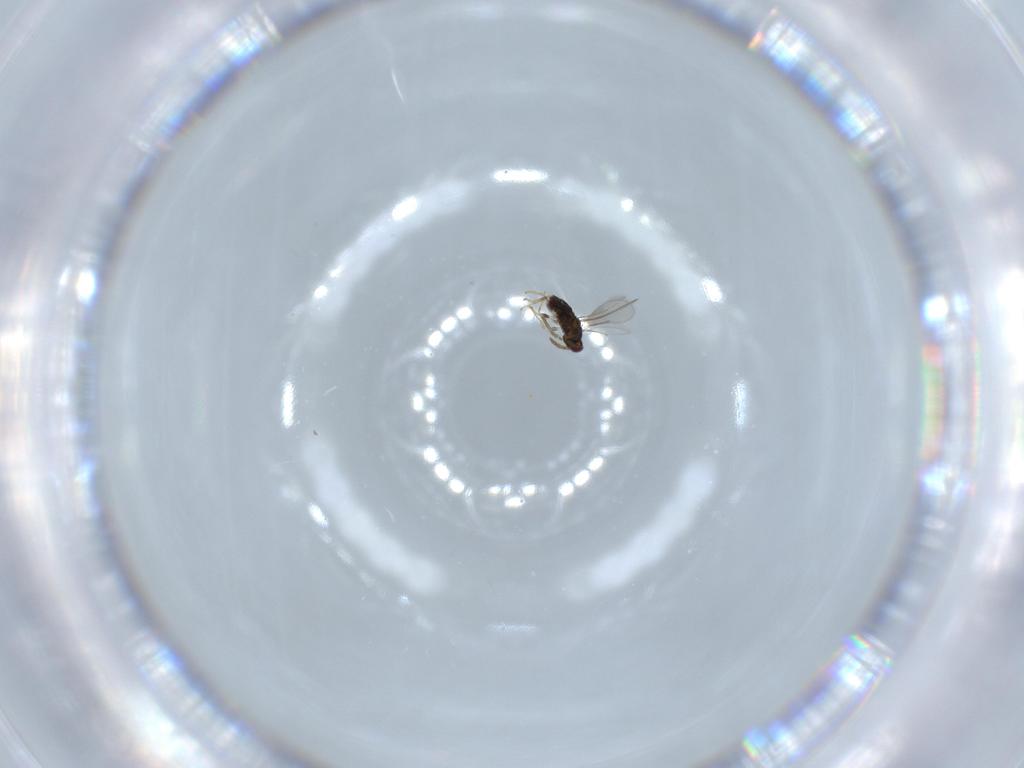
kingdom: Animalia
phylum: Arthropoda
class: Insecta
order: Hymenoptera
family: Aphelinidae
